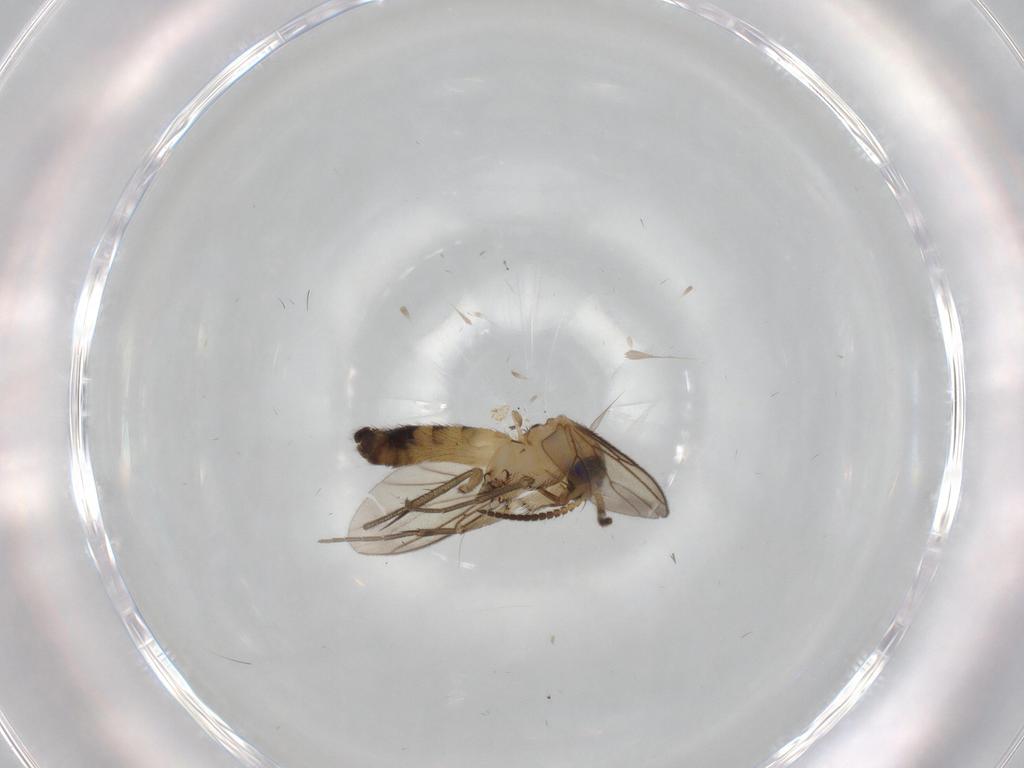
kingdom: Animalia
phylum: Arthropoda
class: Insecta
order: Diptera
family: Mycetophilidae
